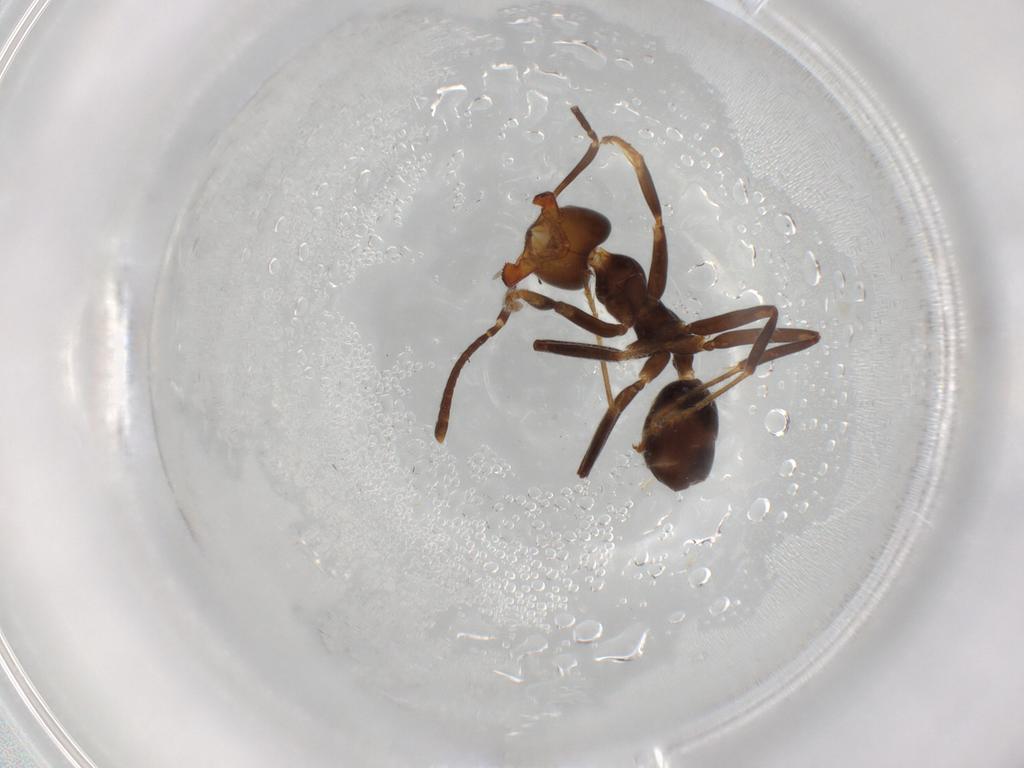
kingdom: Animalia
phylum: Arthropoda
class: Insecta
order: Hymenoptera
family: Formicidae
